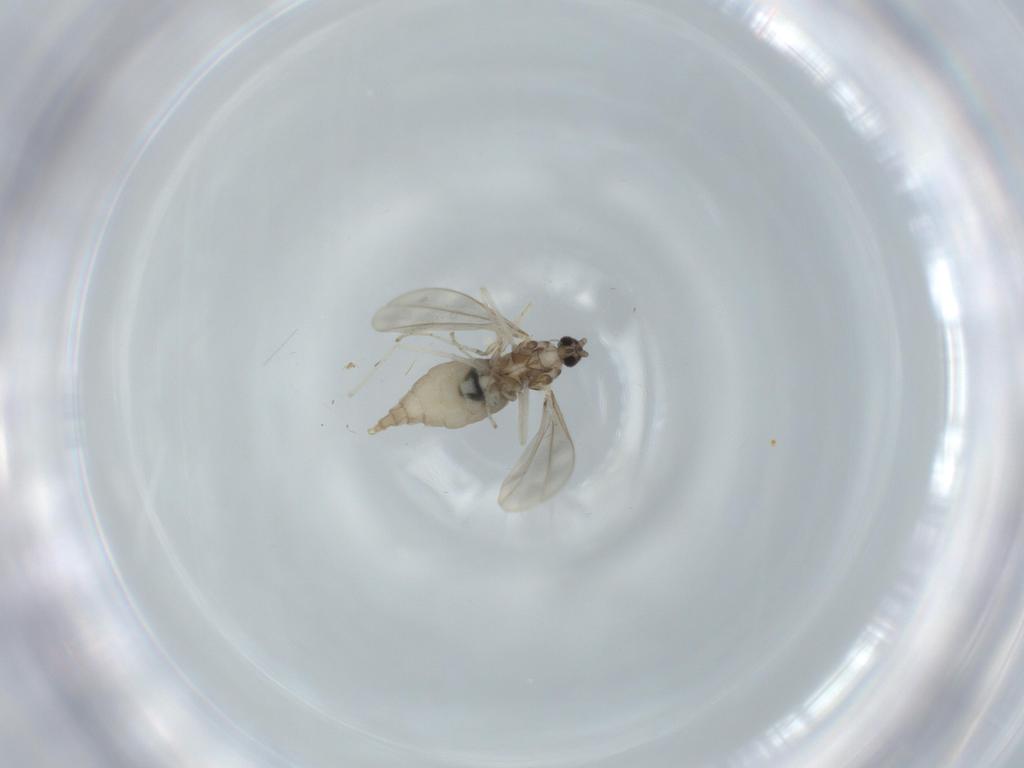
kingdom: Animalia
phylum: Arthropoda
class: Insecta
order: Diptera
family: Cecidomyiidae
